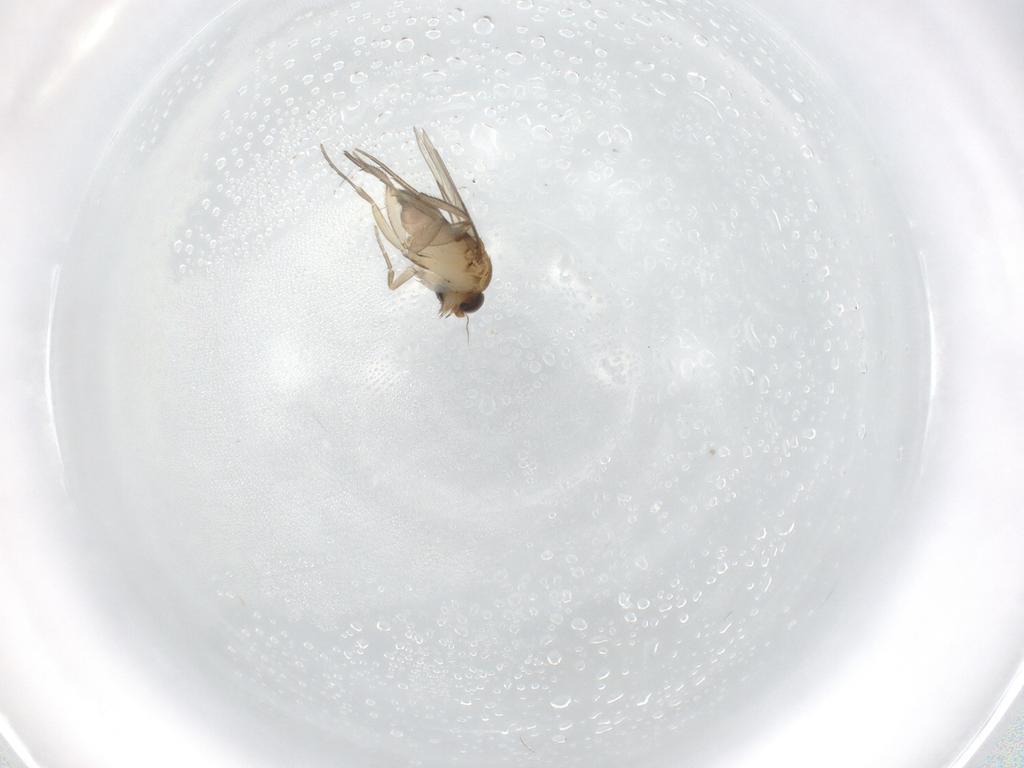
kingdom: Animalia
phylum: Arthropoda
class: Insecta
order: Diptera
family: Phoridae
